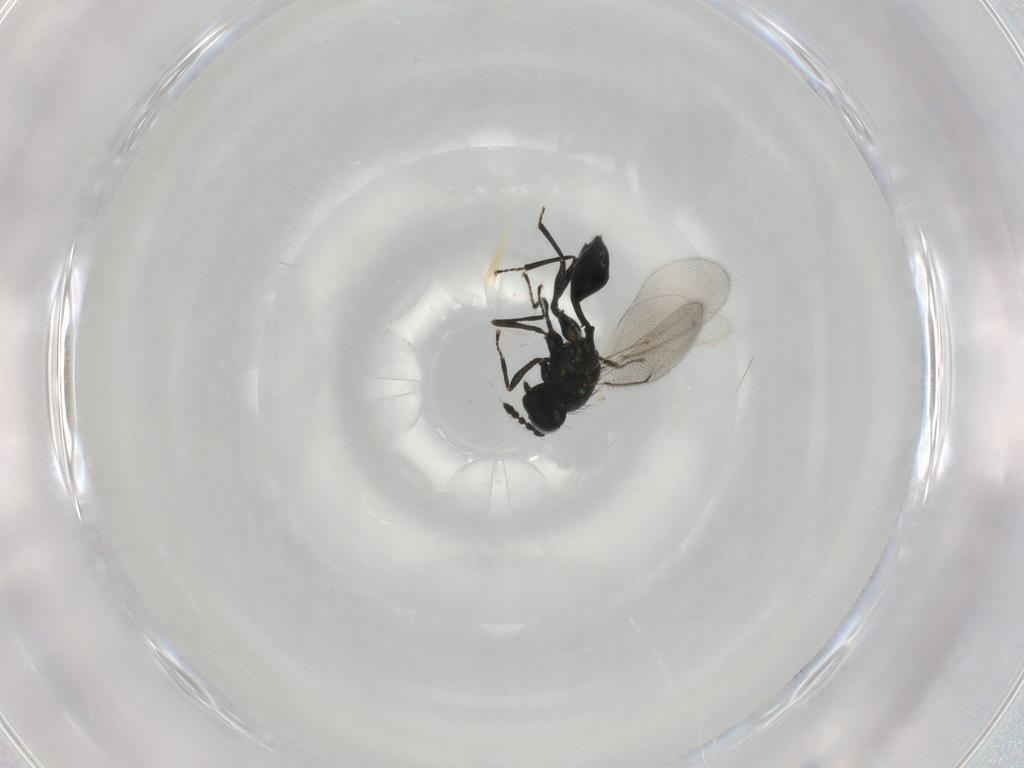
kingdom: Animalia
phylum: Arthropoda
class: Insecta
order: Hymenoptera
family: Eulophidae
